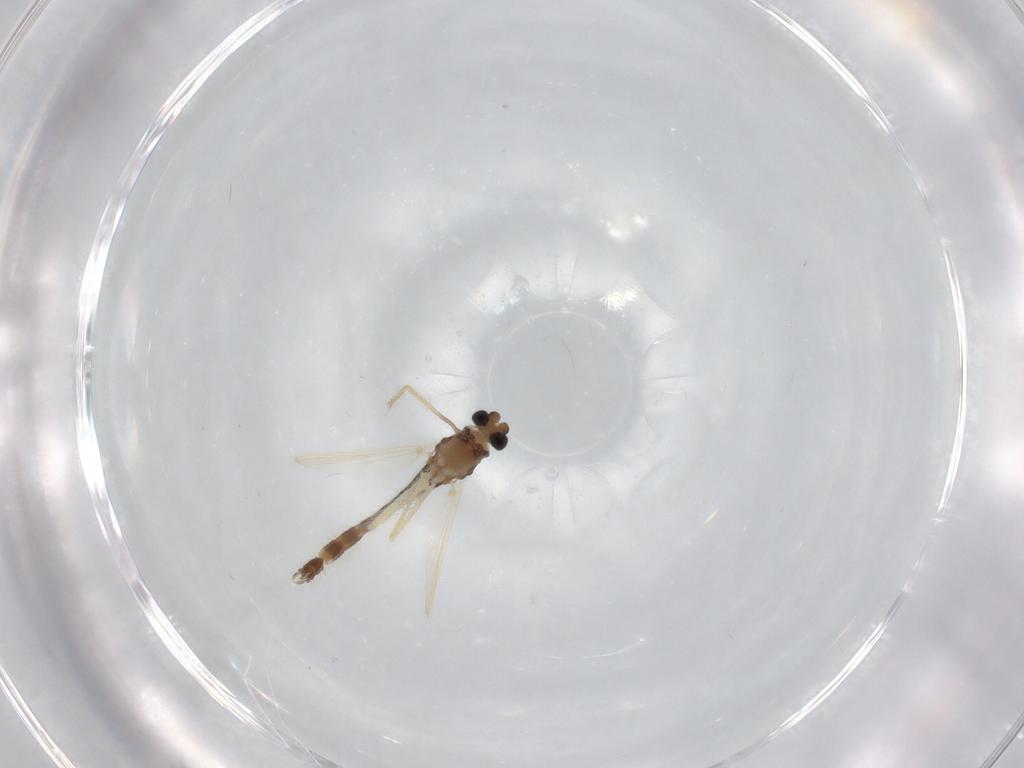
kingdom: Animalia
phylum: Arthropoda
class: Insecta
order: Diptera
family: Chironomidae
